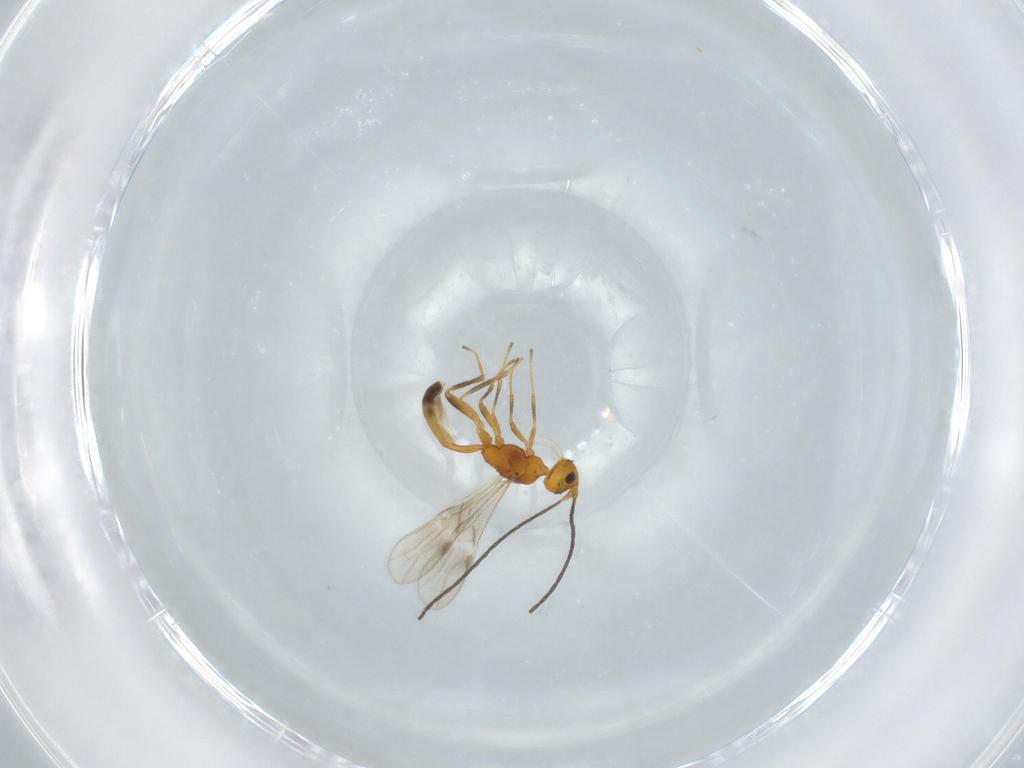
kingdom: Animalia
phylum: Arthropoda
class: Insecta
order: Hymenoptera
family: Braconidae
